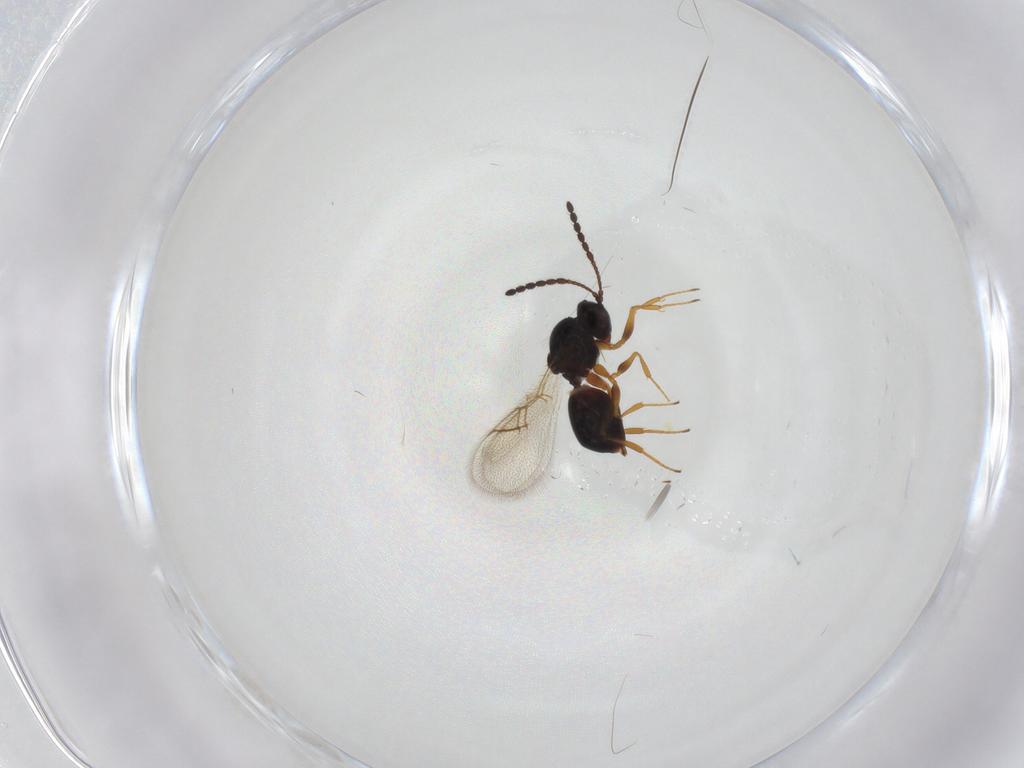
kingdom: Animalia
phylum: Arthropoda
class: Insecta
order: Hymenoptera
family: Figitidae
